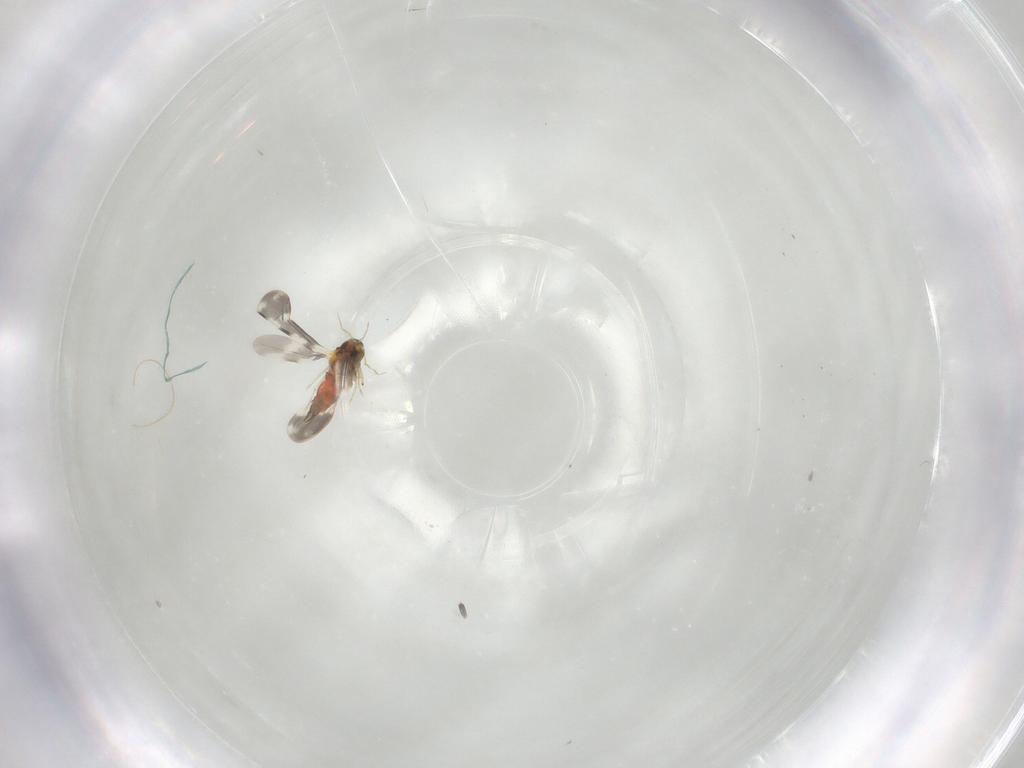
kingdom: Animalia
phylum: Arthropoda
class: Insecta
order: Hemiptera
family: Aleyrodidae
